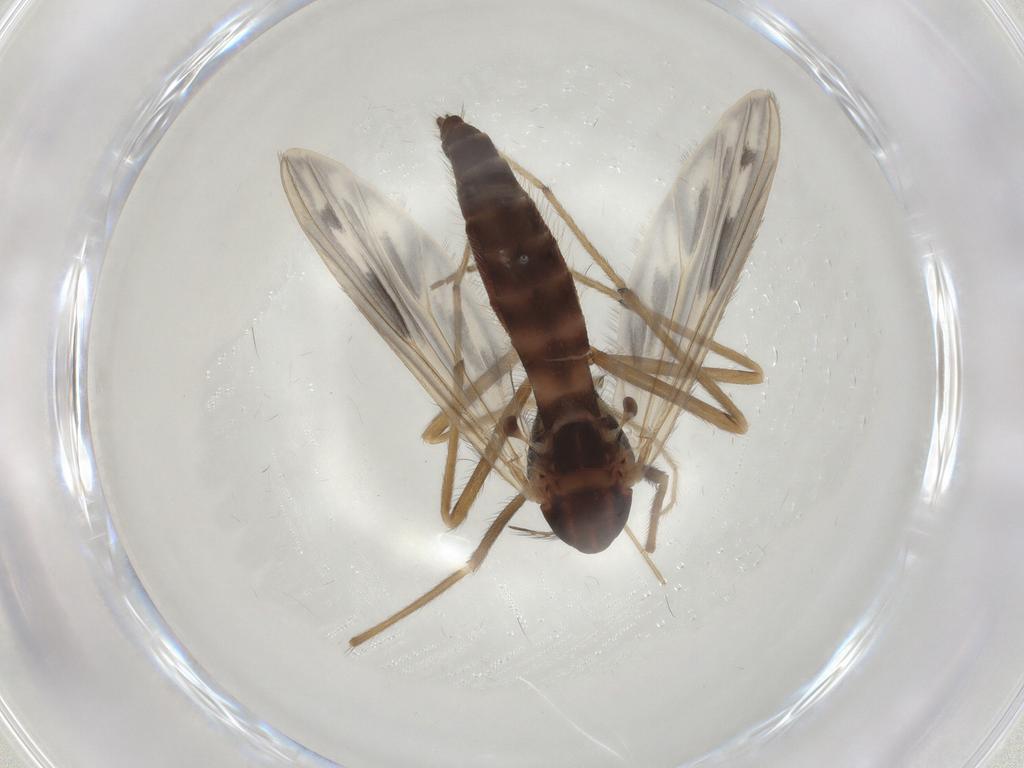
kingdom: Animalia
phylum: Arthropoda
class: Insecta
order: Diptera
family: Chironomidae
